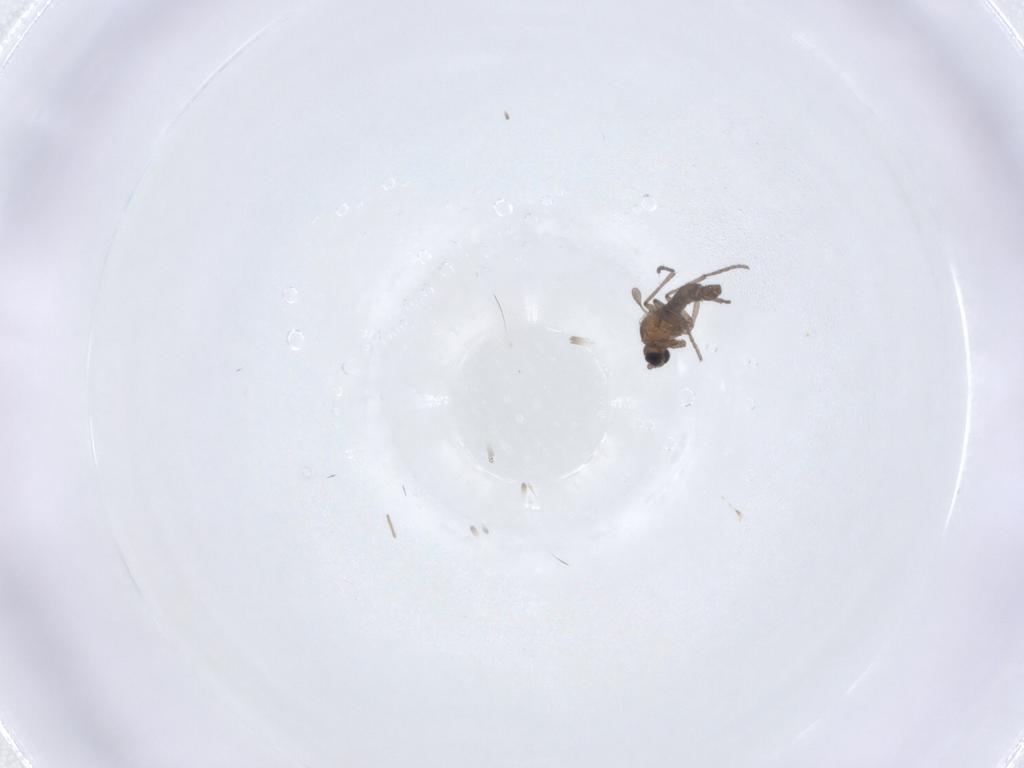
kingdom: Animalia
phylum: Arthropoda
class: Insecta
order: Diptera
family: Sciaridae
